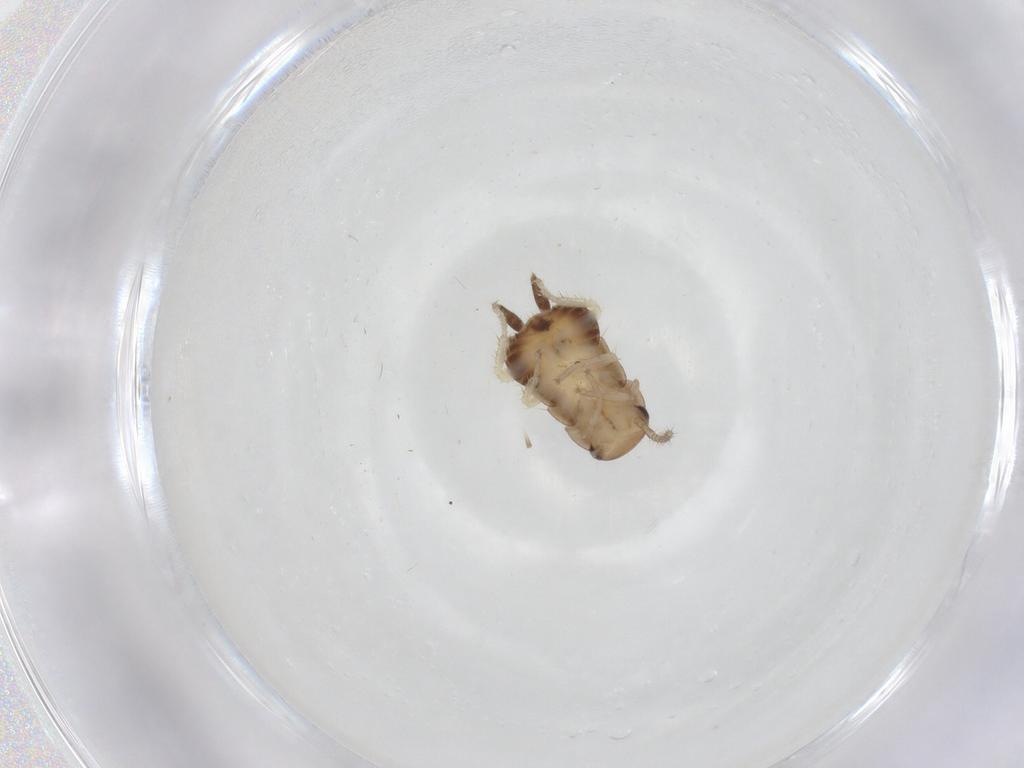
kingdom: Animalia
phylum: Arthropoda
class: Insecta
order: Blattodea
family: Ectobiidae
